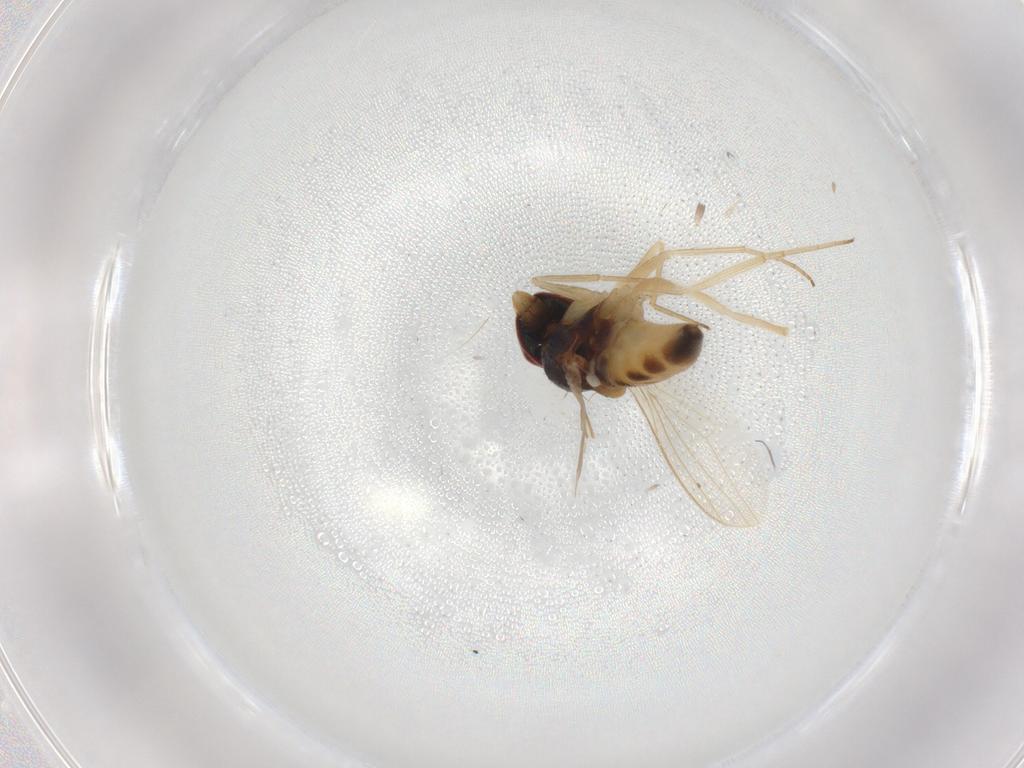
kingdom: Animalia
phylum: Arthropoda
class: Insecta
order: Diptera
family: Dolichopodidae
